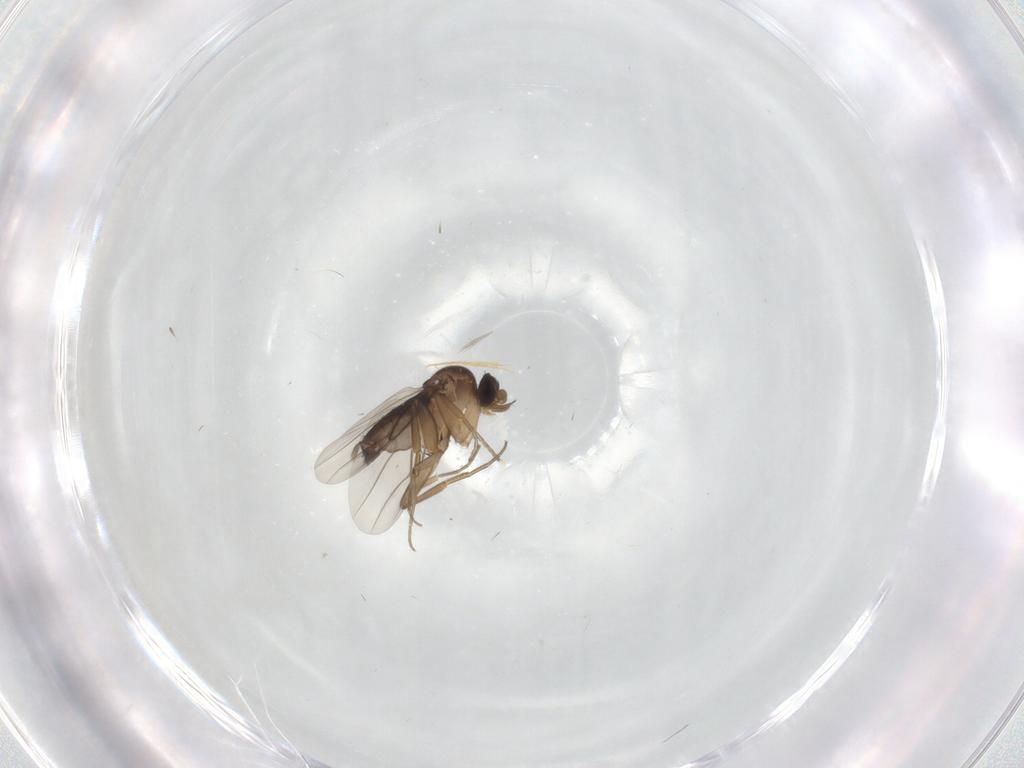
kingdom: Animalia
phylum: Arthropoda
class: Insecta
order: Diptera
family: Phoridae
